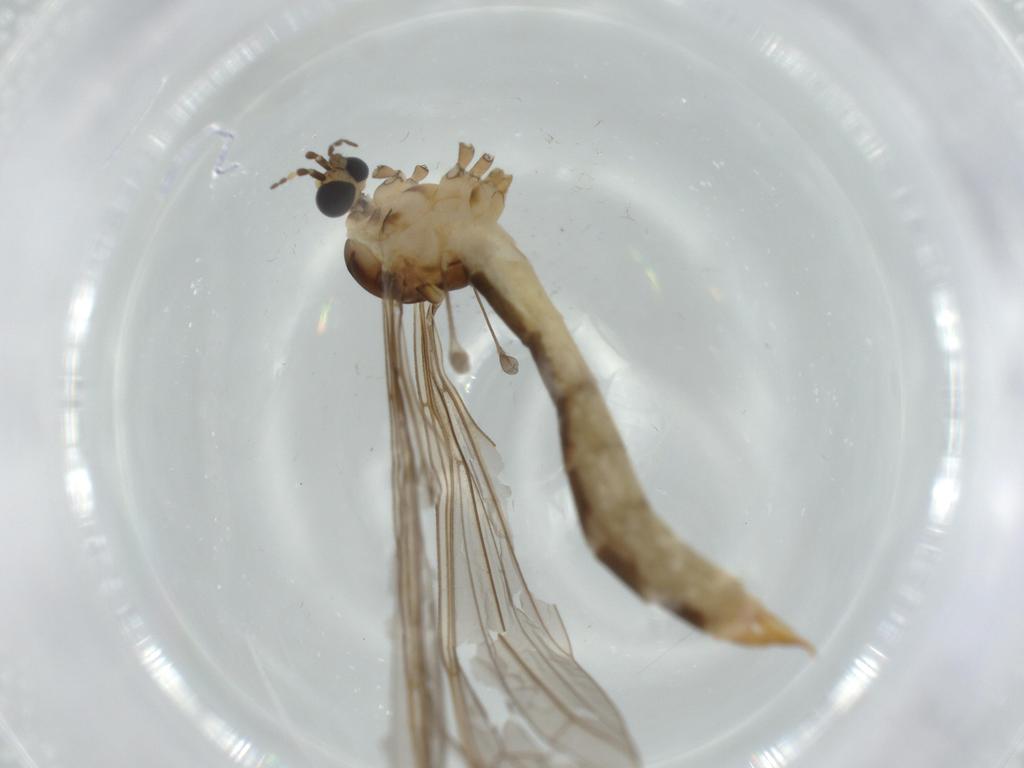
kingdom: Animalia
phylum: Arthropoda
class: Insecta
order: Diptera
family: Limoniidae
